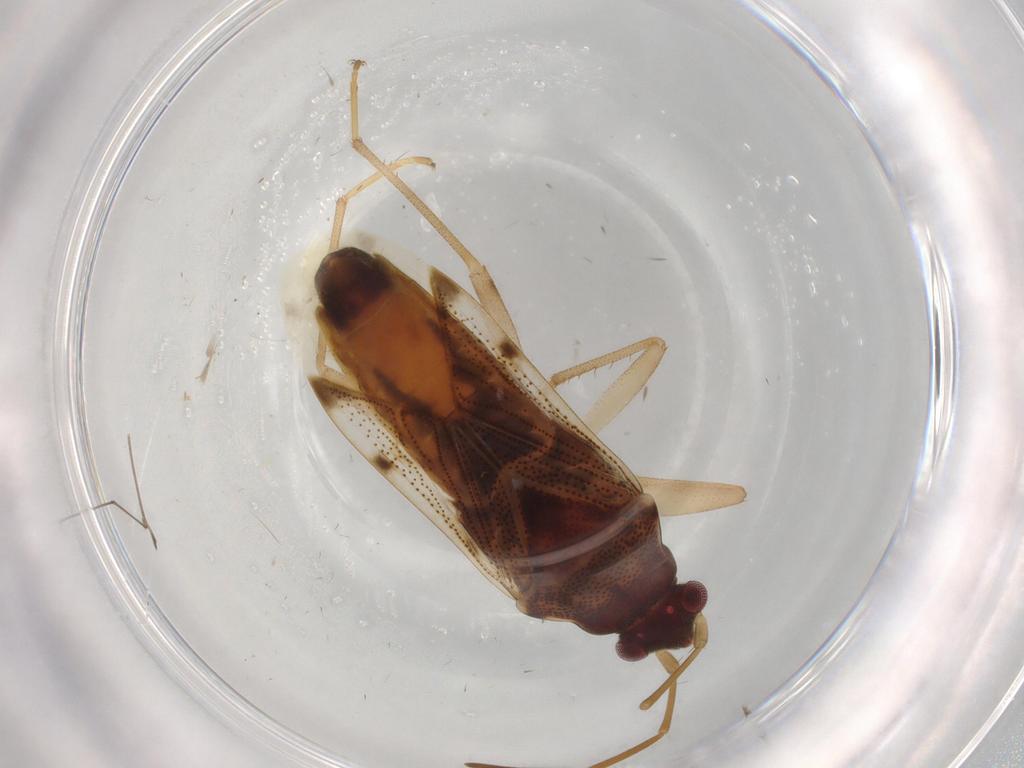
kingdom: Animalia
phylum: Arthropoda
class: Insecta
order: Hemiptera
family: Rhyparochromidae
